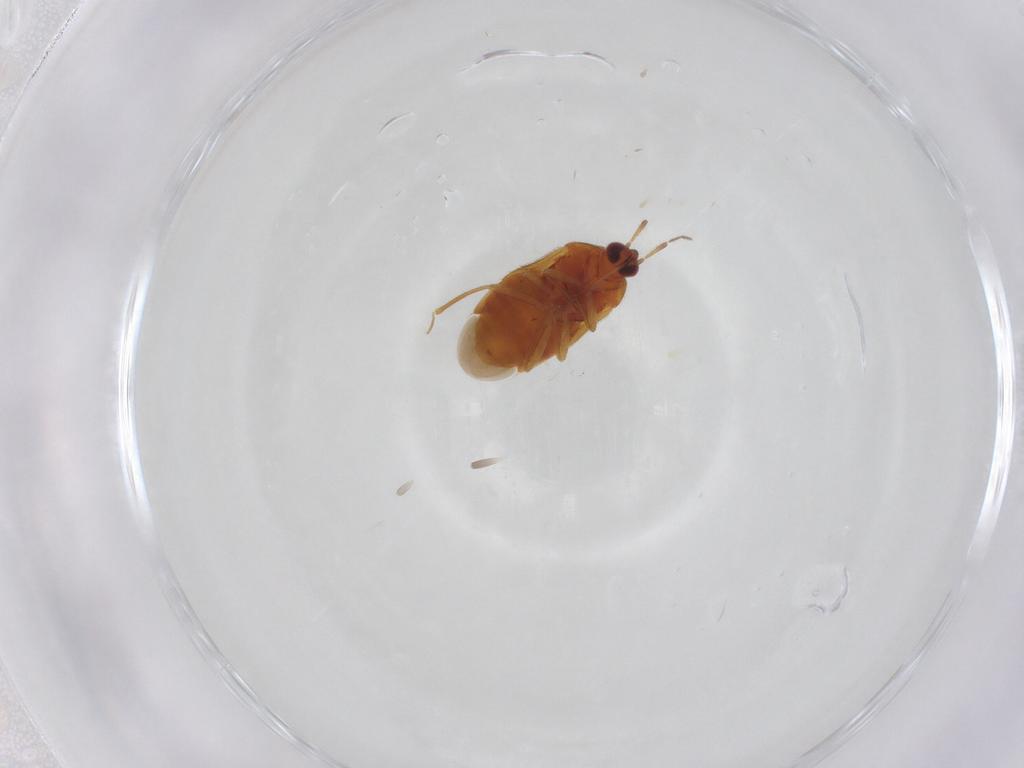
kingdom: Animalia
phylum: Arthropoda
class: Insecta
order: Hemiptera
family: Anthocoridae
